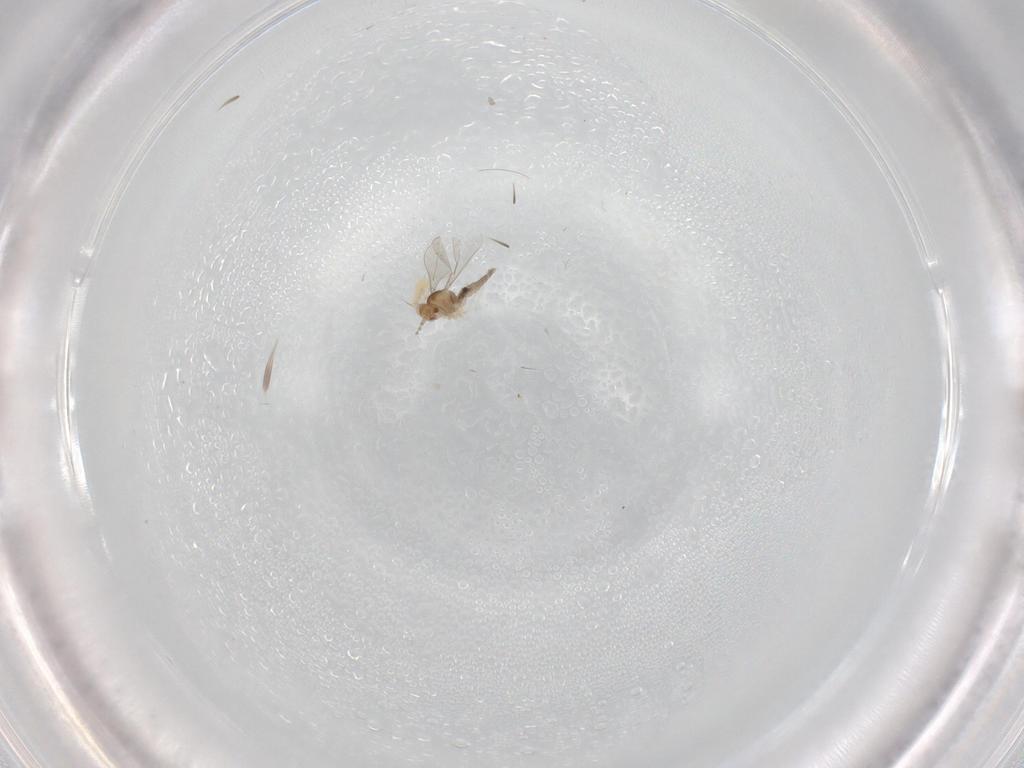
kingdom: Animalia
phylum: Arthropoda
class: Insecta
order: Diptera
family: Sciaridae
